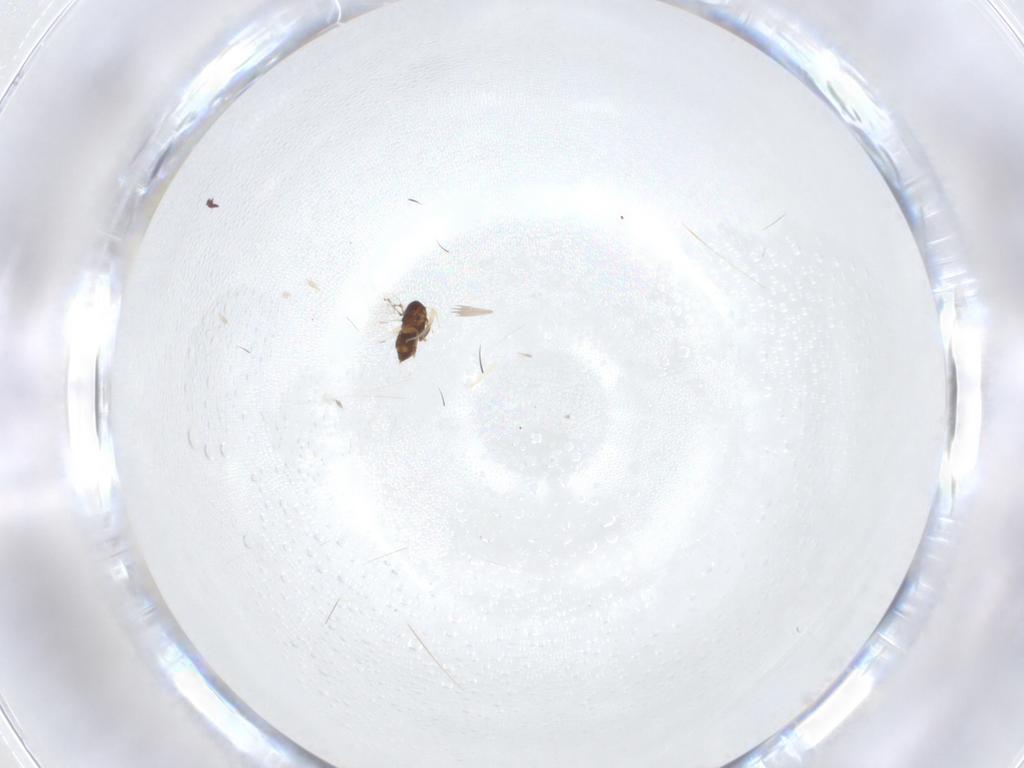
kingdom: Animalia
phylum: Arthropoda
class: Insecta
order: Hymenoptera
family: Trichogrammatidae
